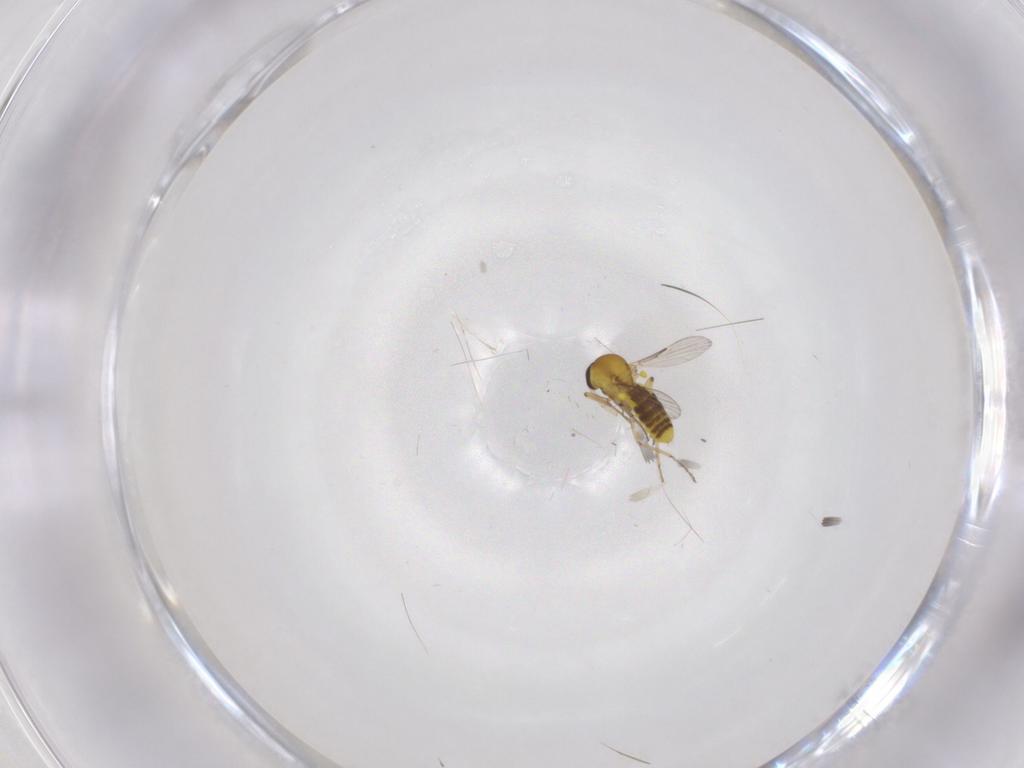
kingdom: Animalia
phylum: Arthropoda
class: Insecta
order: Diptera
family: Ceratopogonidae
